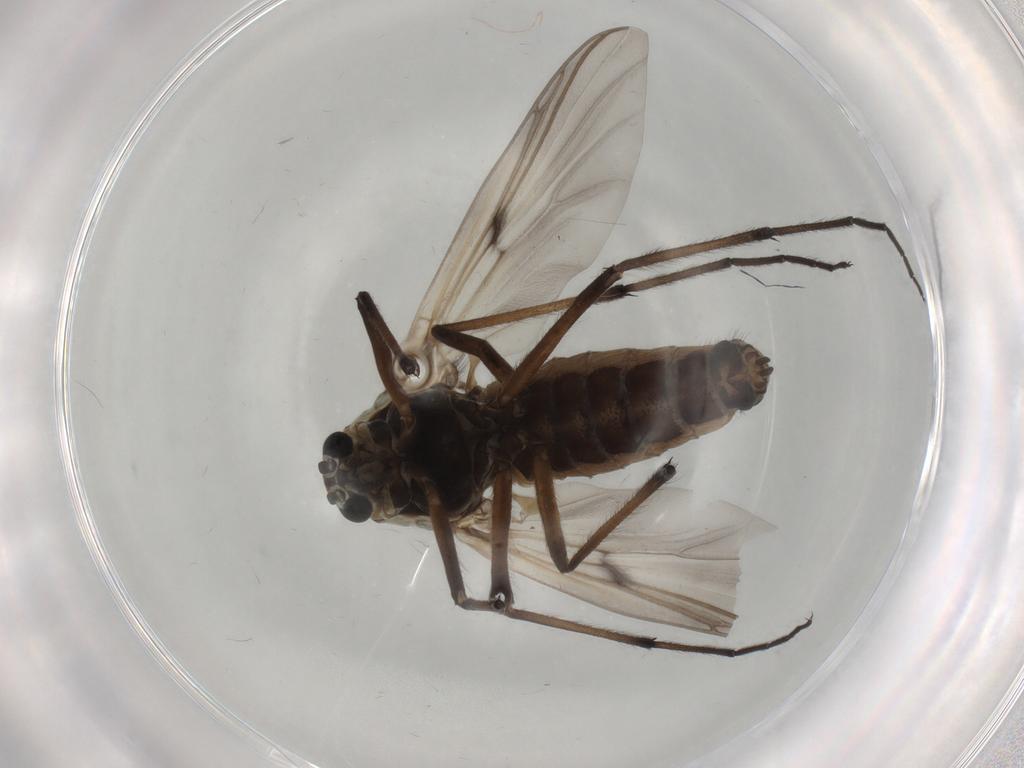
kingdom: Animalia
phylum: Arthropoda
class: Insecta
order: Diptera
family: Chironomidae
